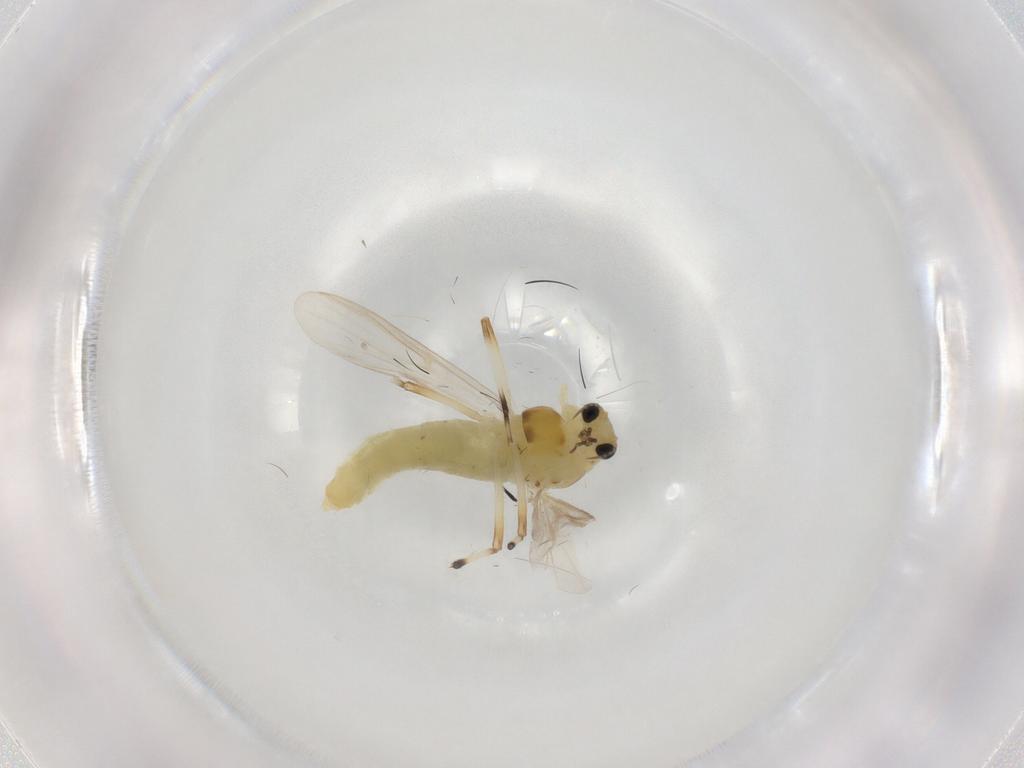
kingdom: Animalia
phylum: Arthropoda
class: Insecta
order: Diptera
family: Chironomidae
